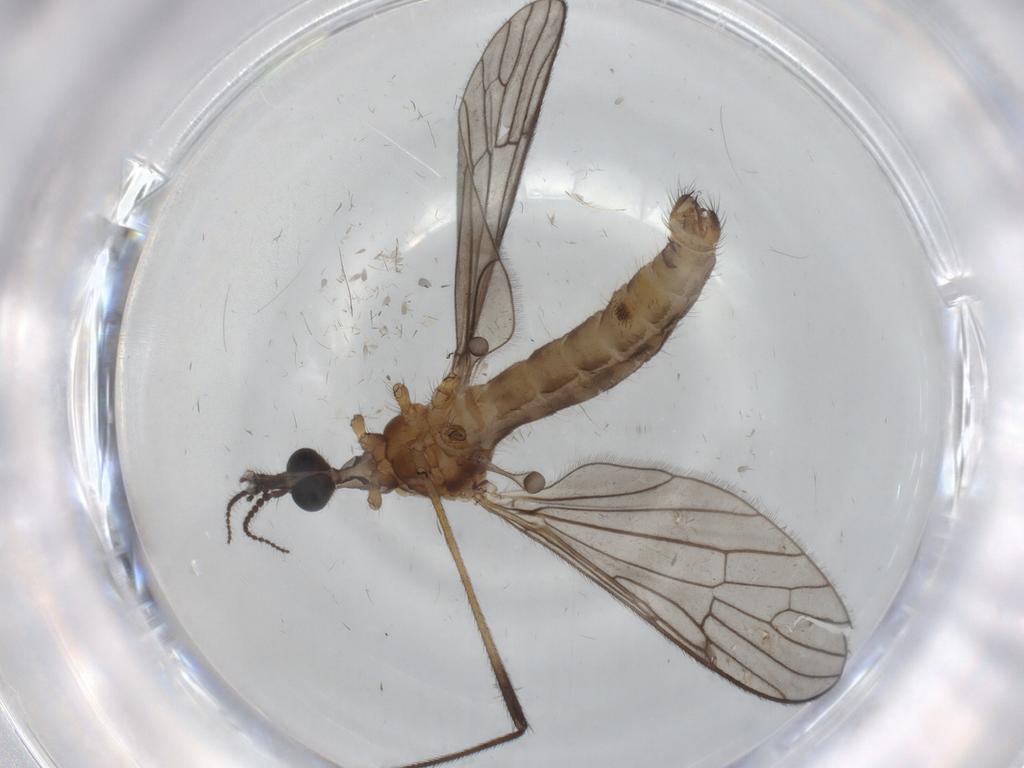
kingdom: Animalia
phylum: Arthropoda
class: Insecta
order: Diptera
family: Limoniidae
